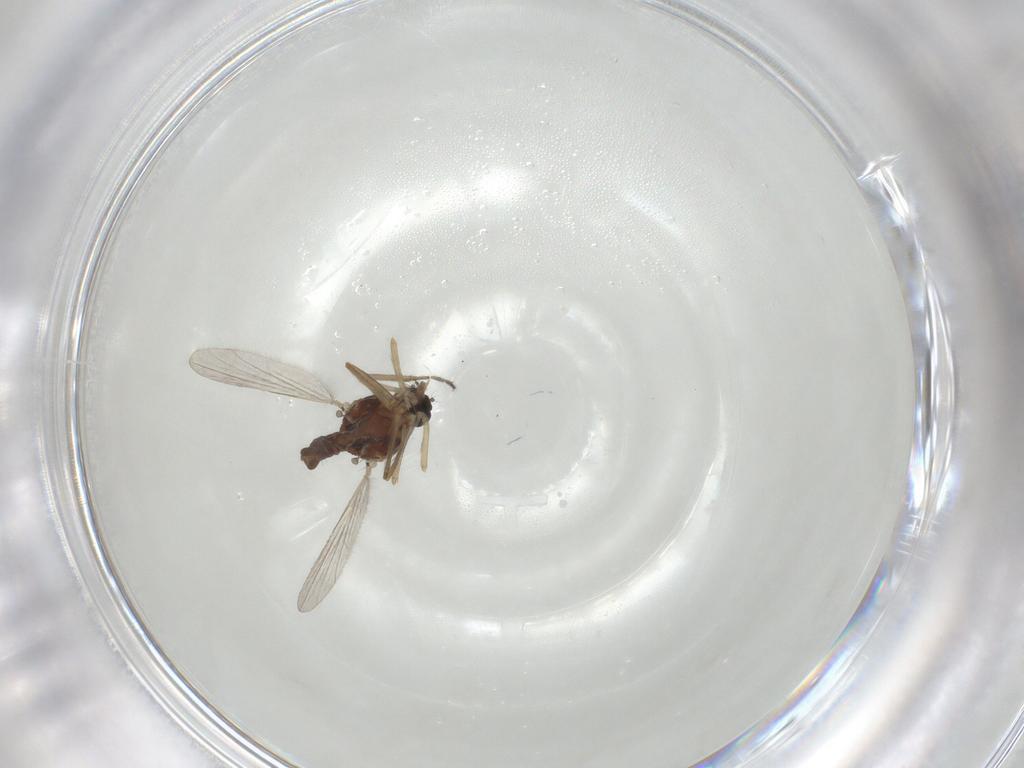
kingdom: Animalia
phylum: Arthropoda
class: Insecta
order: Diptera
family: Ceratopogonidae
